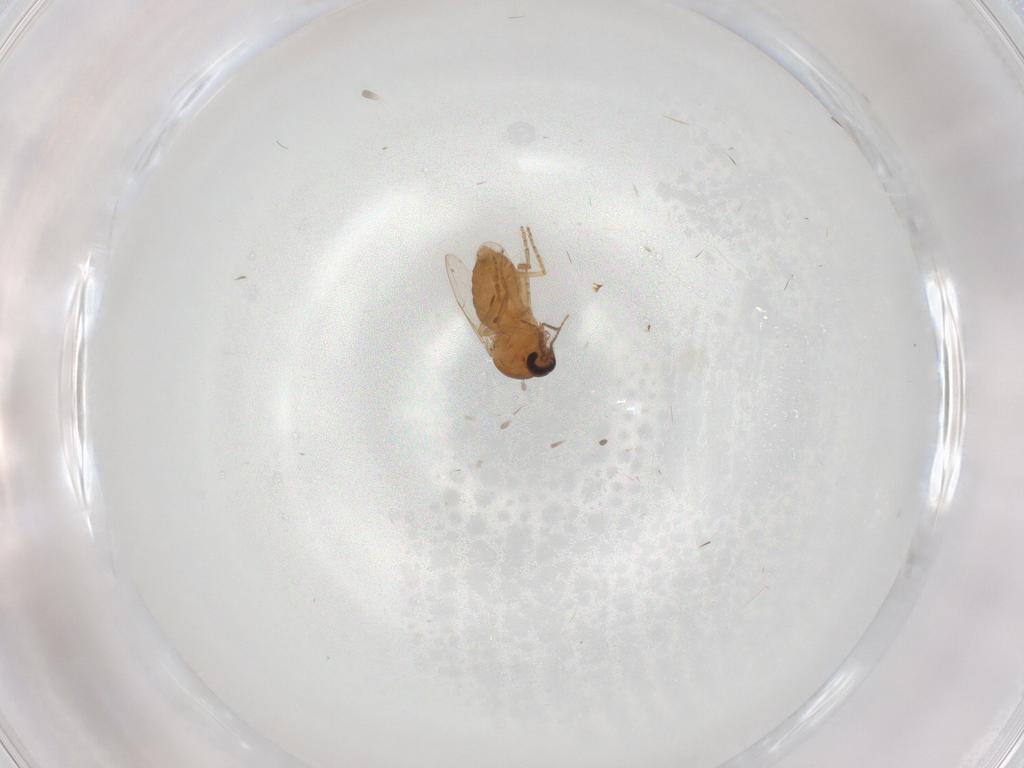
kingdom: Animalia
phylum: Arthropoda
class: Insecta
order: Diptera
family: Ceratopogonidae
